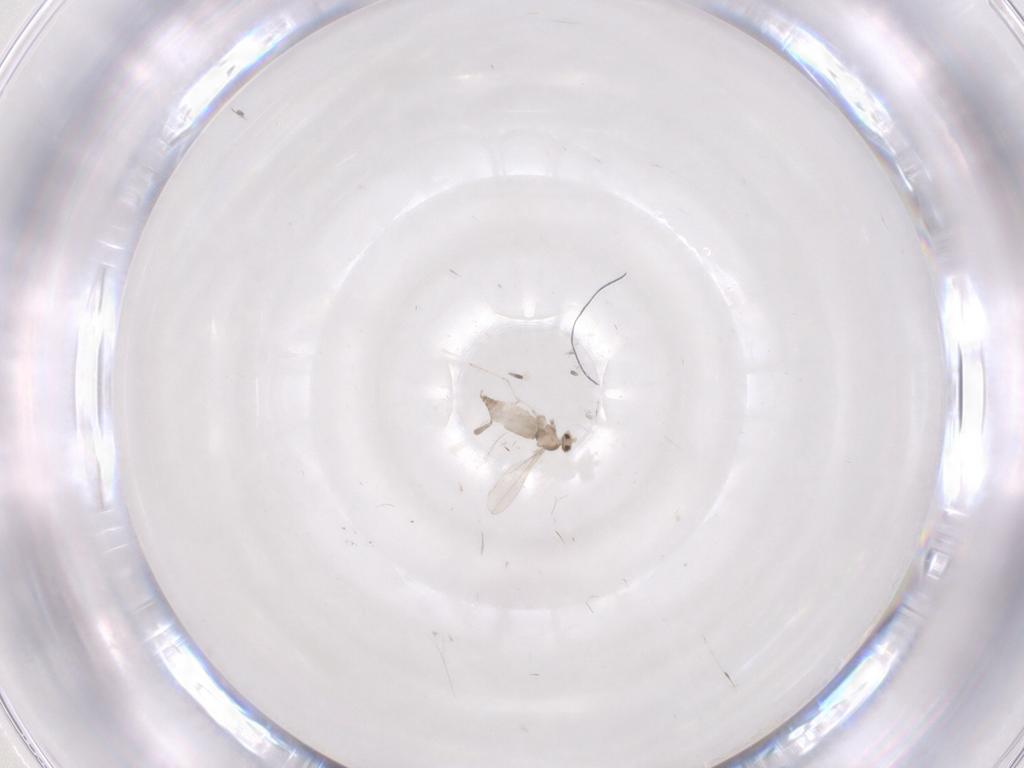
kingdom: Animalia
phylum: Arthropoda
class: Insecta
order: Diptera
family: Cecidomyiidae
